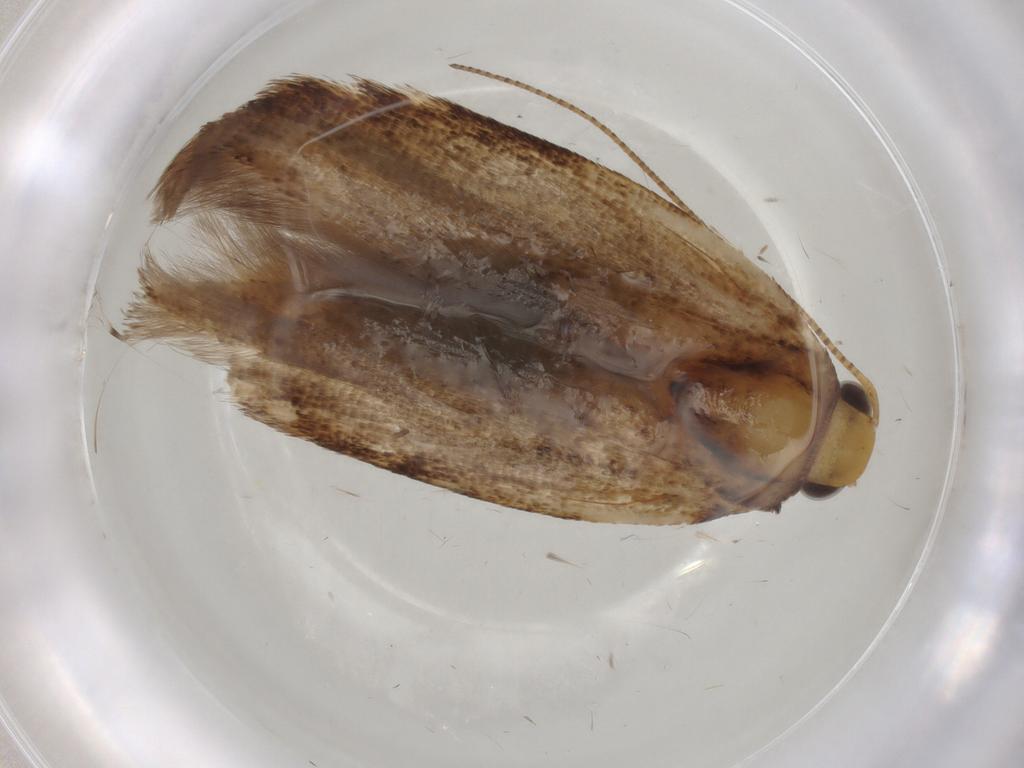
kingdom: Animalia
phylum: Arthropoda
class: Insecta
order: Lepidoptera
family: Gelechiidae
